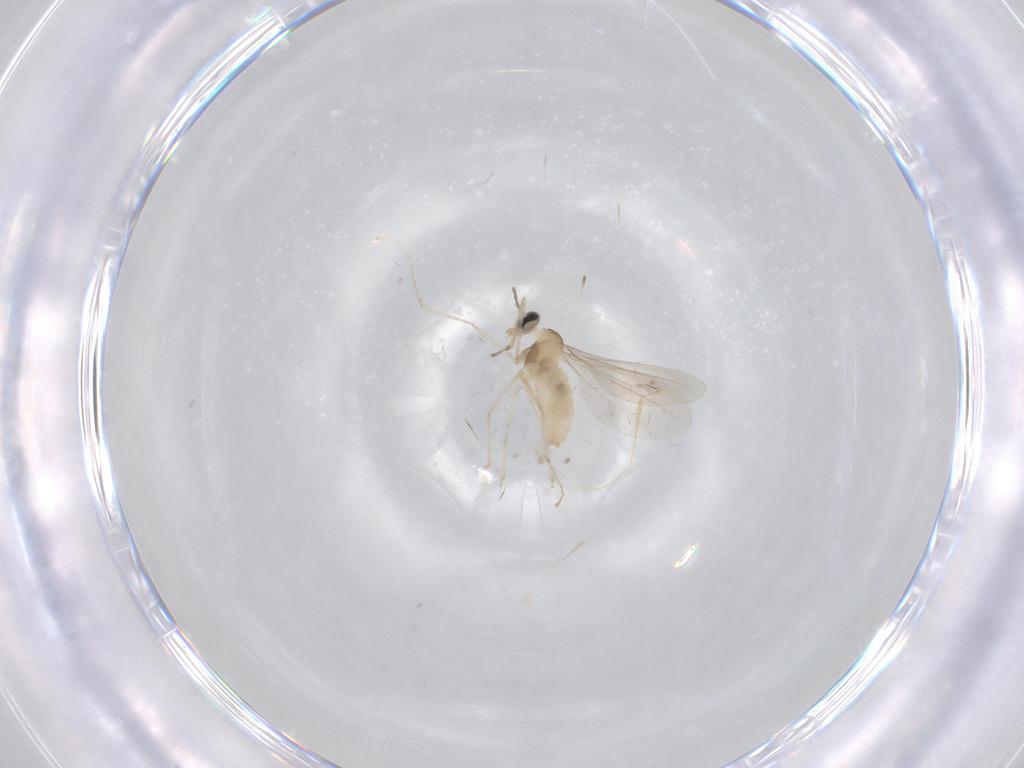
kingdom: Animalia
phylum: Arthropoda
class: Insecta
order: Diptera
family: Cecidomyiidae
